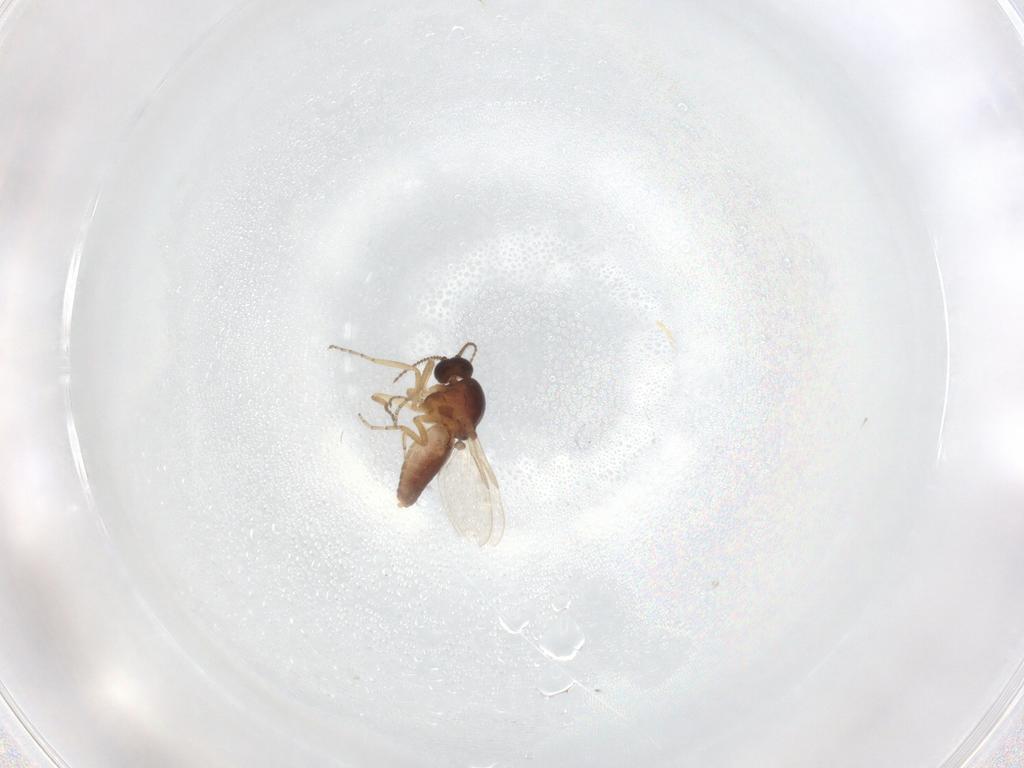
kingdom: Animalia
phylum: Arthropoda
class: Insecta
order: Diptera
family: Ceratopogonidae
